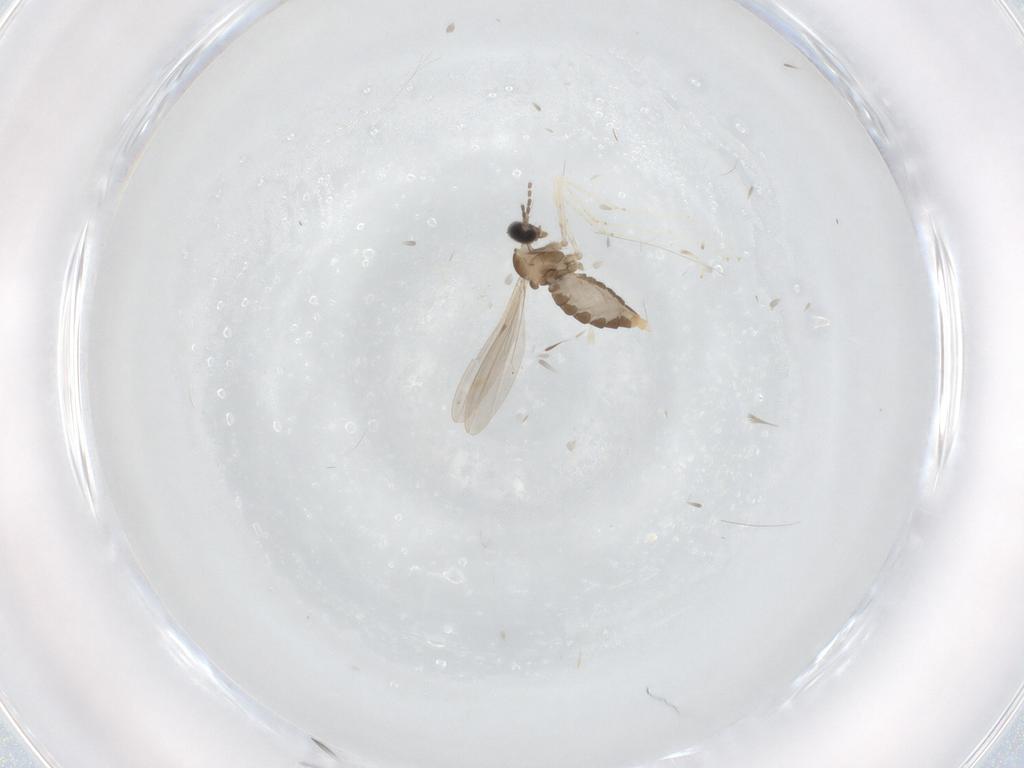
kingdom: Animalia
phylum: Arthropoda
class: Insecta
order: Diptera
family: Cecidomyiidae
